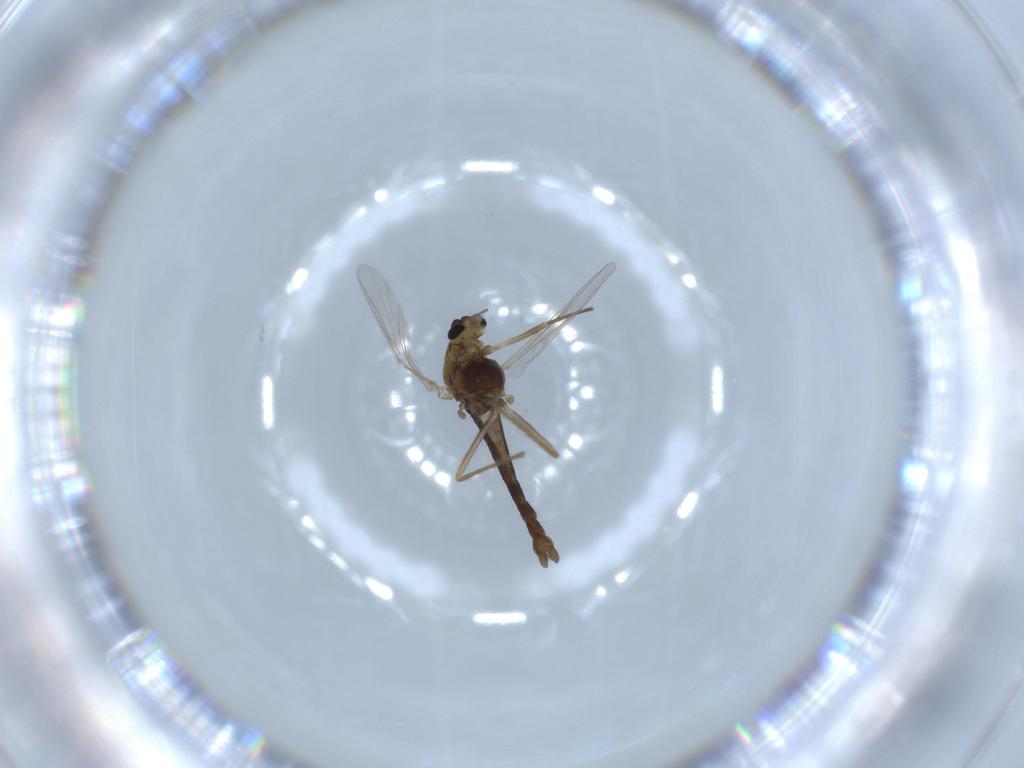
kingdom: Animalia
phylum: Arthropoda
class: Insecta
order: Diptera
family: Chironomidae
